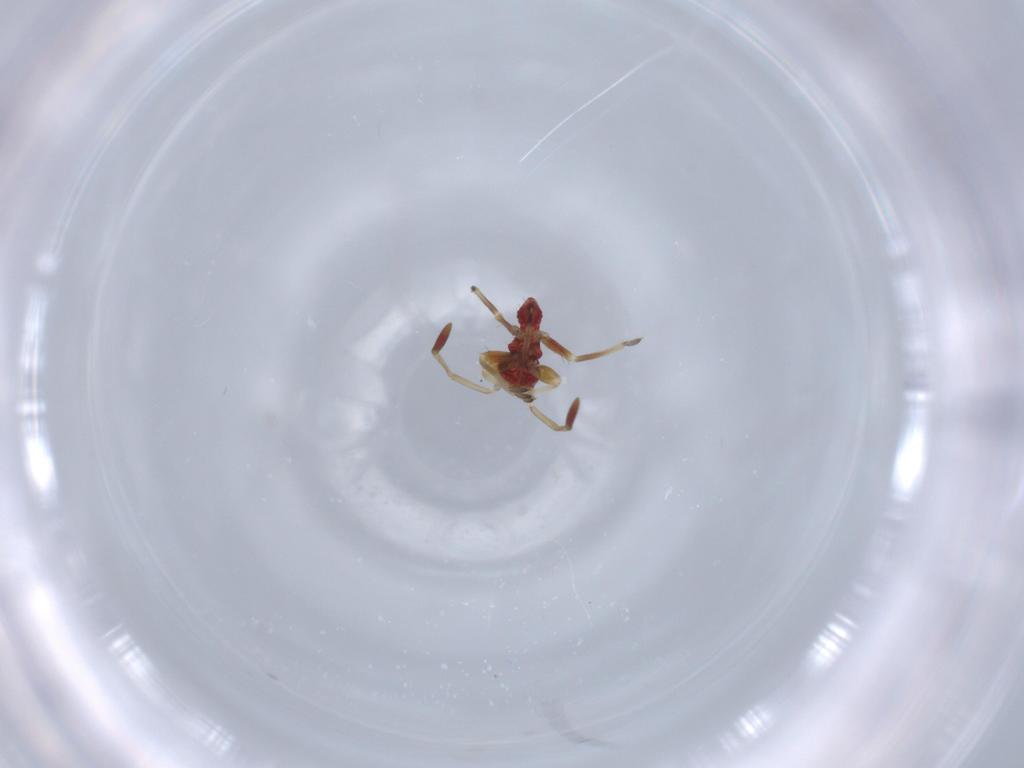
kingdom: Animalia
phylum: Arthropoda
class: Insecta
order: Hemiptera
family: Miridae
